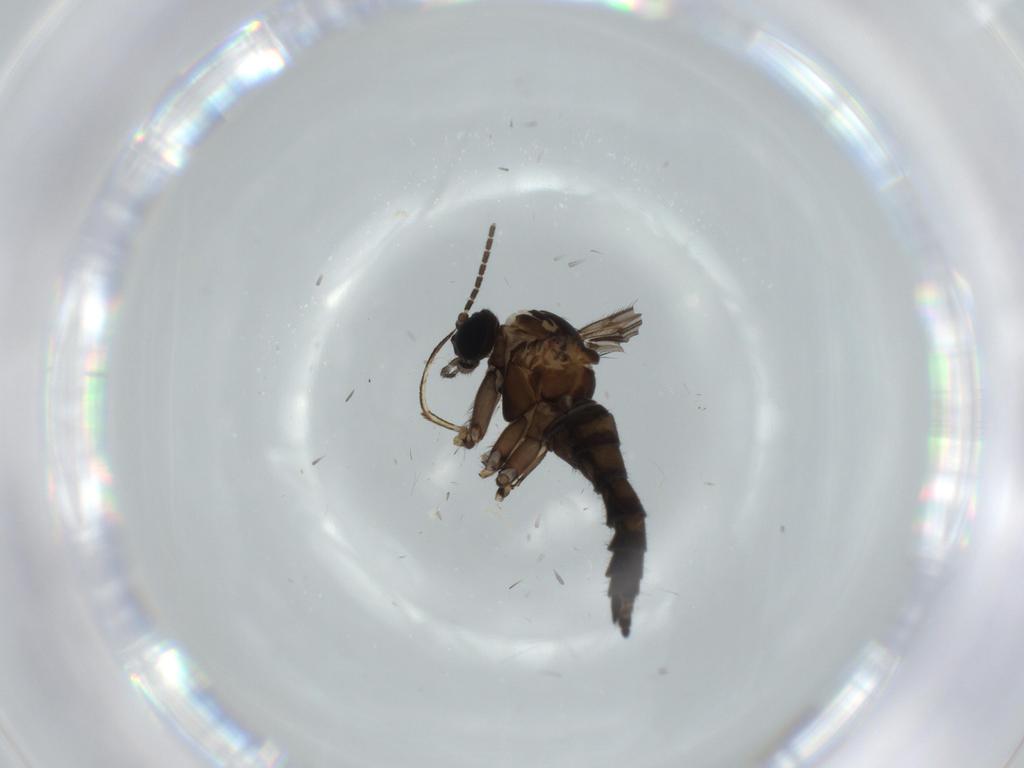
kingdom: Animalia
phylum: Arthropoda
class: Insecta
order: Diptera
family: Sciaridae
